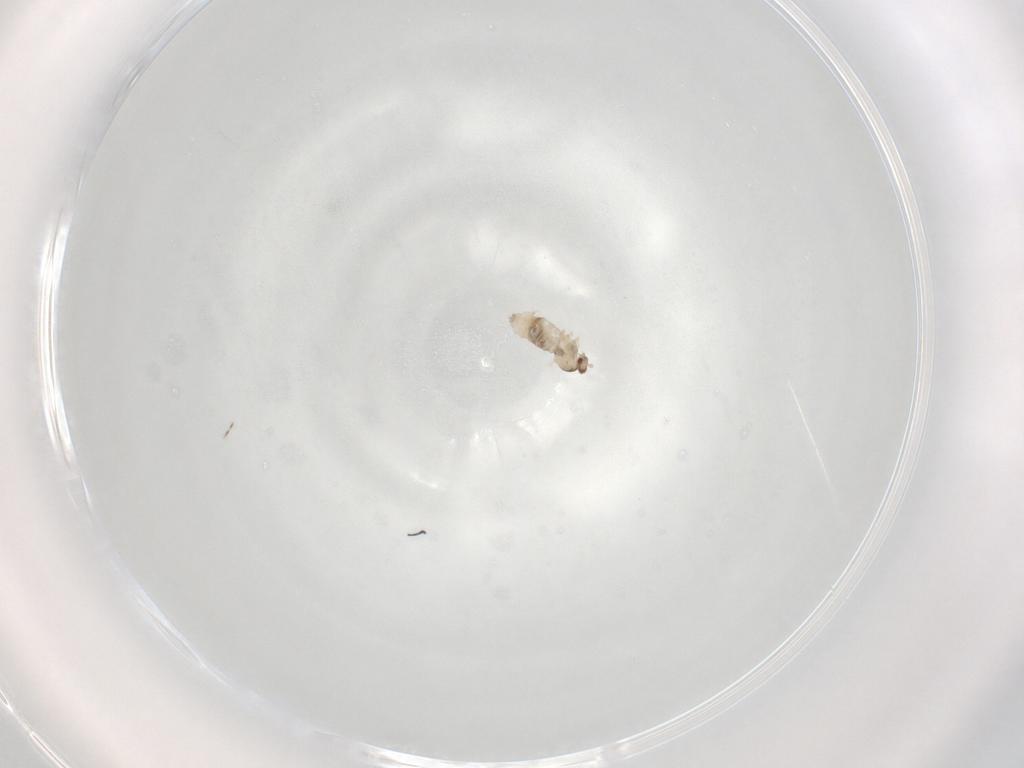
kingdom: Animalia
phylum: Arthropoda
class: Insecta
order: Diptera
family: Cecidomyiidae
